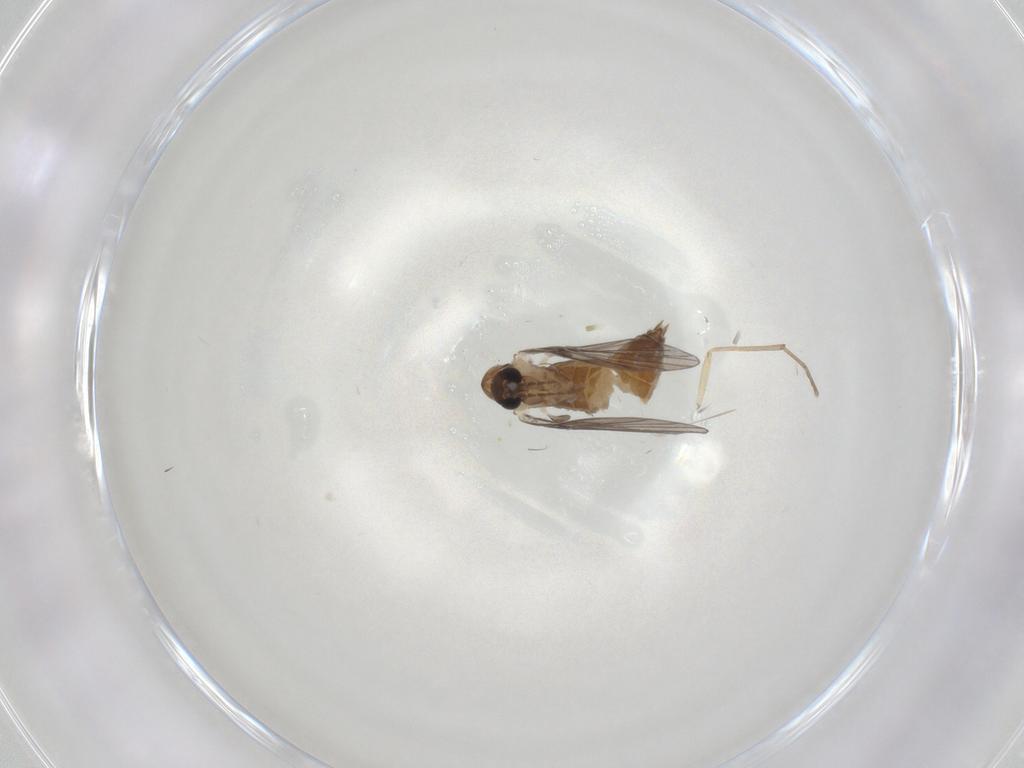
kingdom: Animalia
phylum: Arthropoda
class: Insecta
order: Diptera
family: Psychodidae
